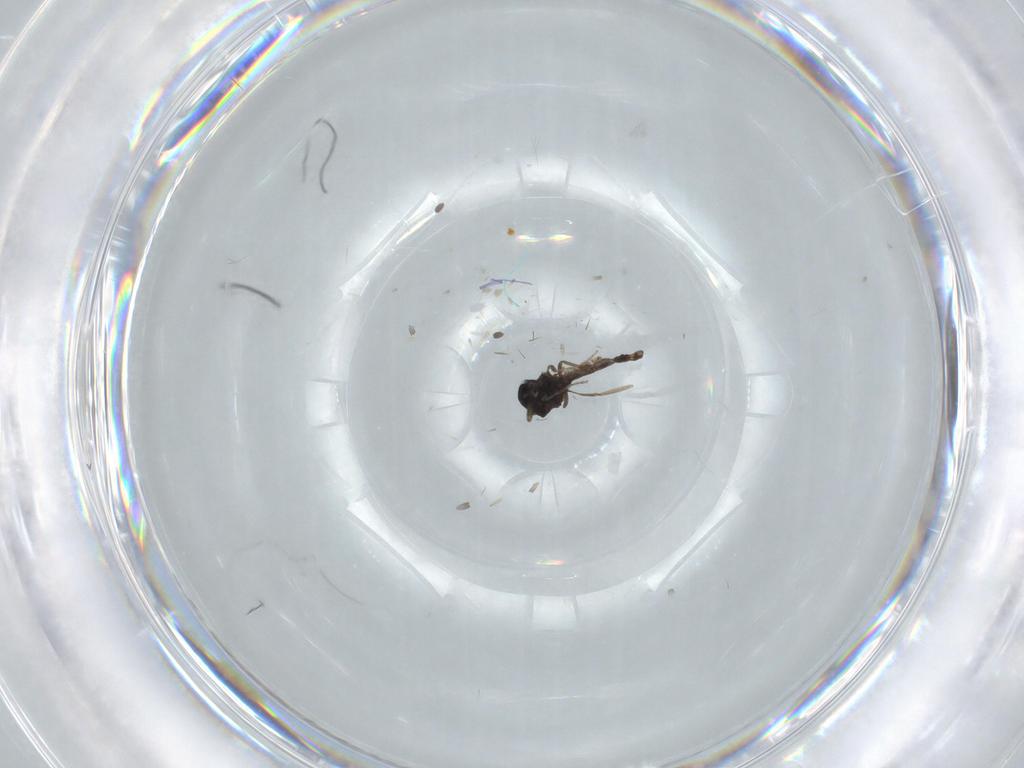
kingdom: Animalia
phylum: Arthropoda
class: Insecta
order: Diptera
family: Ceratopogonidae
